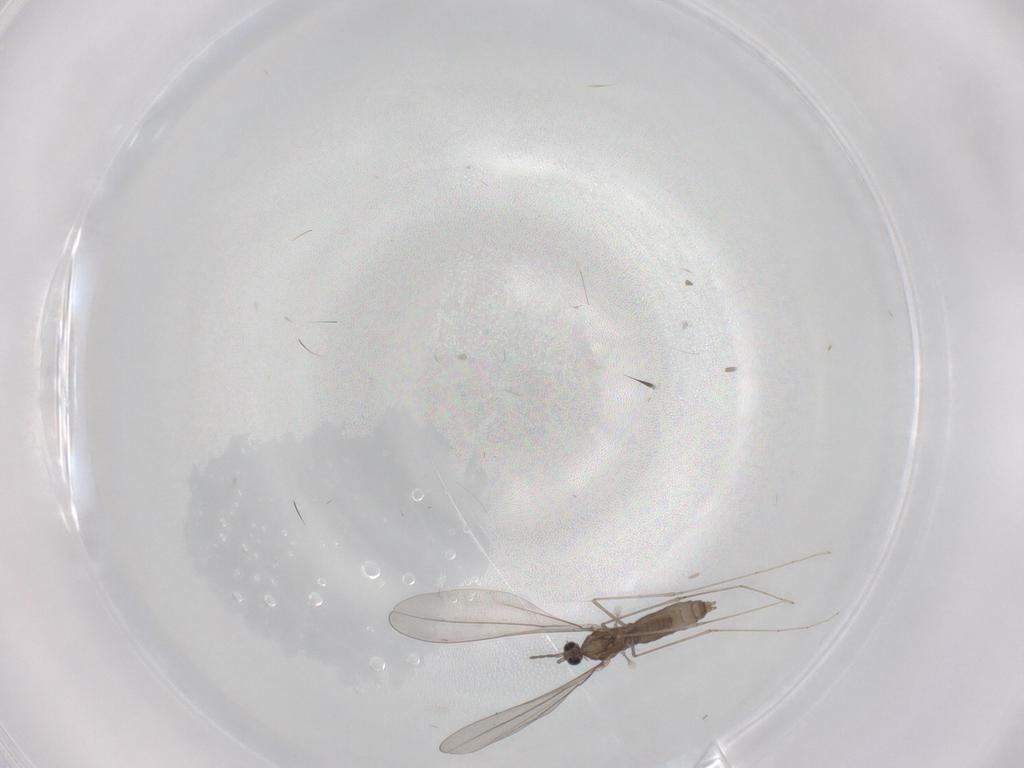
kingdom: Animalia
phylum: Arthropoda
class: Insecta
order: Diptera
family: Cecidomyiidae
